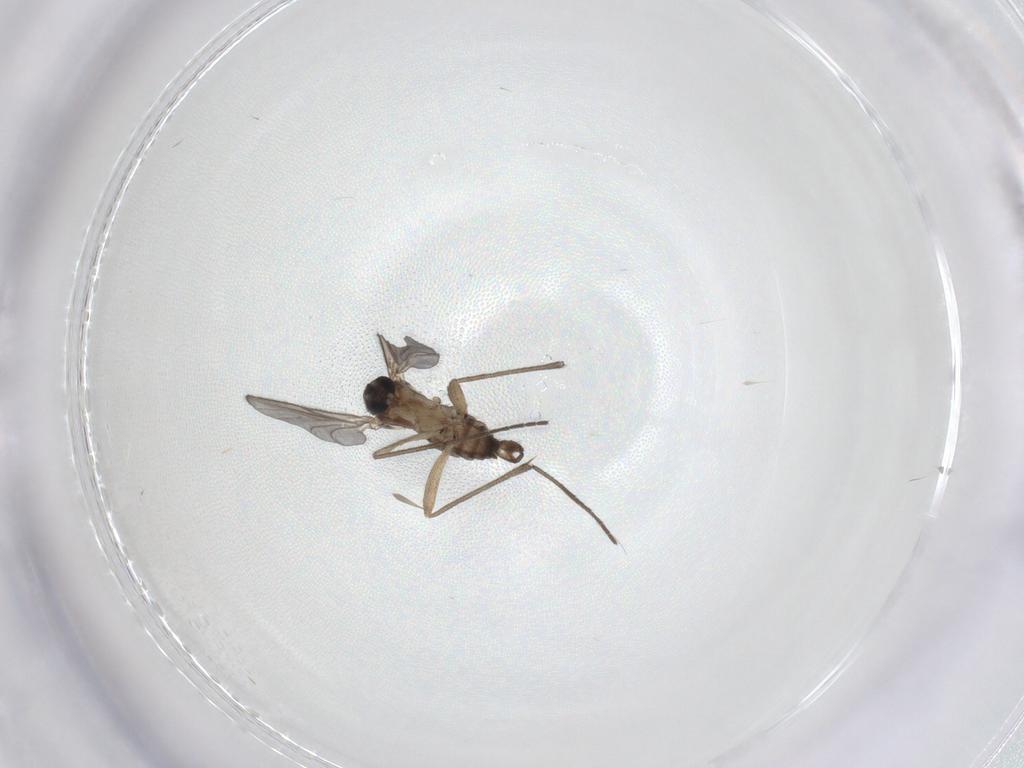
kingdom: Animalia
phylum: Arthropoda
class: Insecta
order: Diptera
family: Sciaridae
